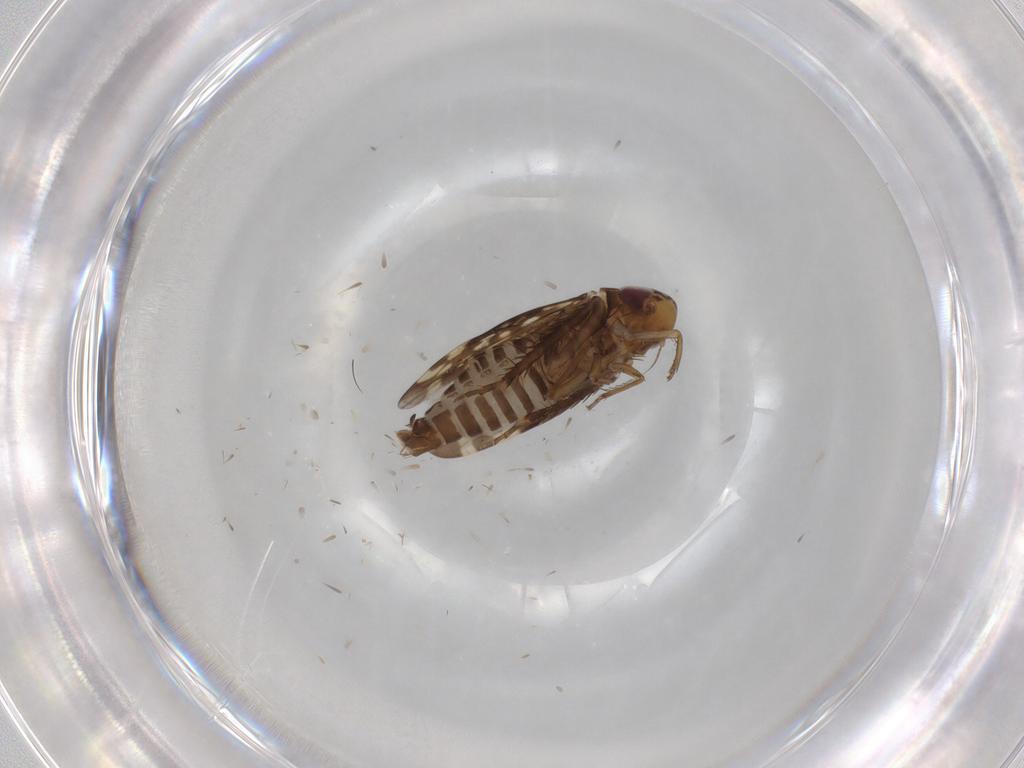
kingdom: Animalia
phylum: Arthropoda
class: Insecta
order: Hemiptera
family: Cicadellidae
